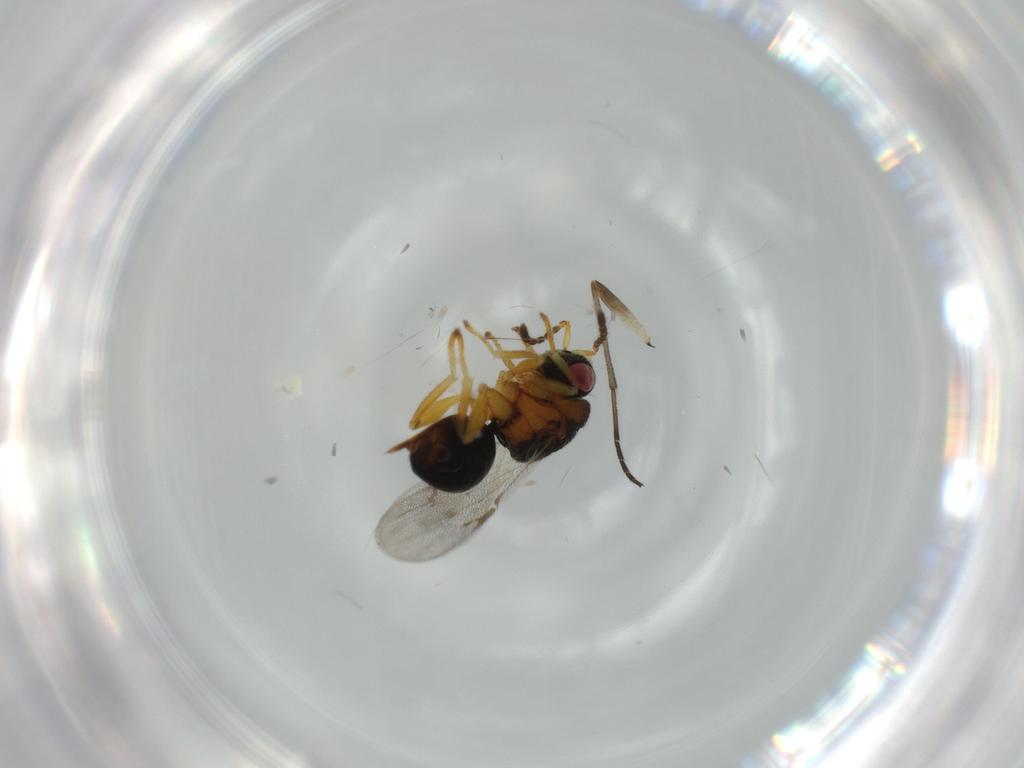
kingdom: Animalia
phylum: Arthropoda
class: Insecta
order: Hymenoptera
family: Eurytomidae
